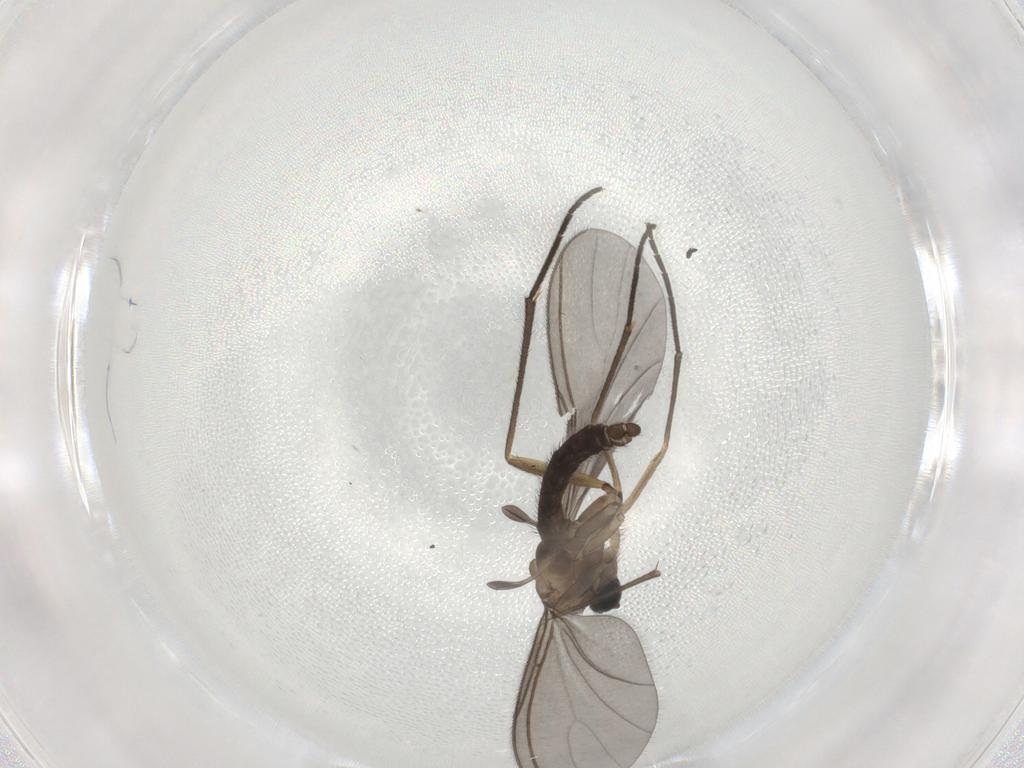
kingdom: Animalia
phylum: Arthropoda
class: Insecta
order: Diptera
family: Sciaridae
